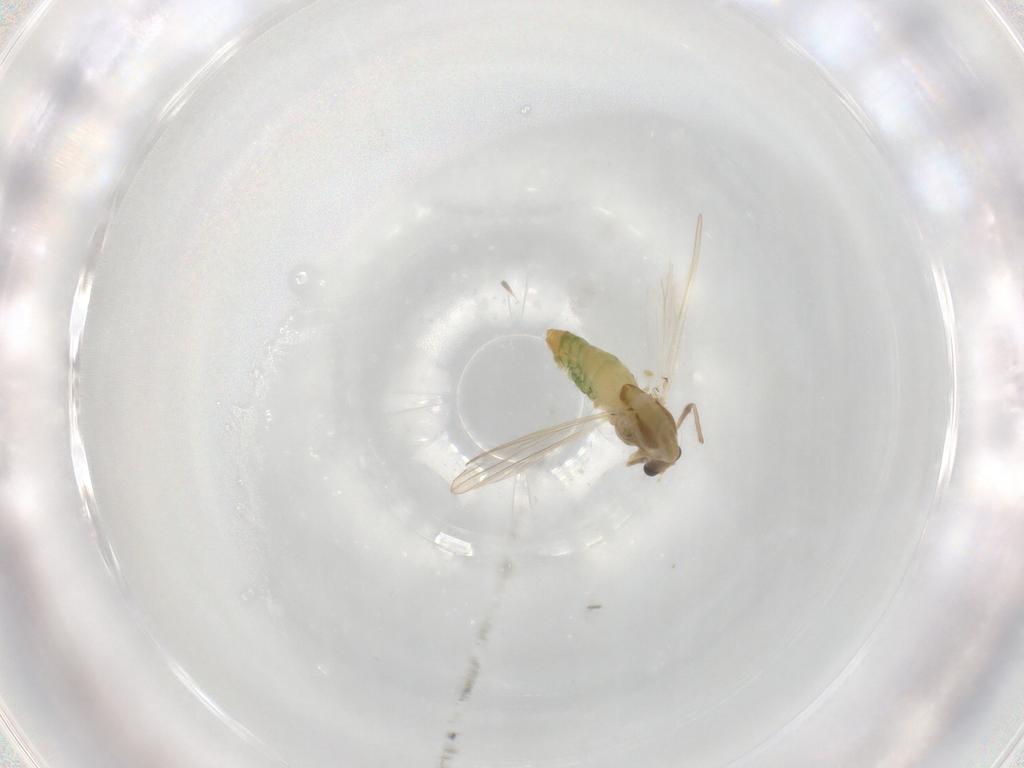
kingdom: Animalia
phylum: Arthropoda
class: Insecta
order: Diptera
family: Chironomidae
